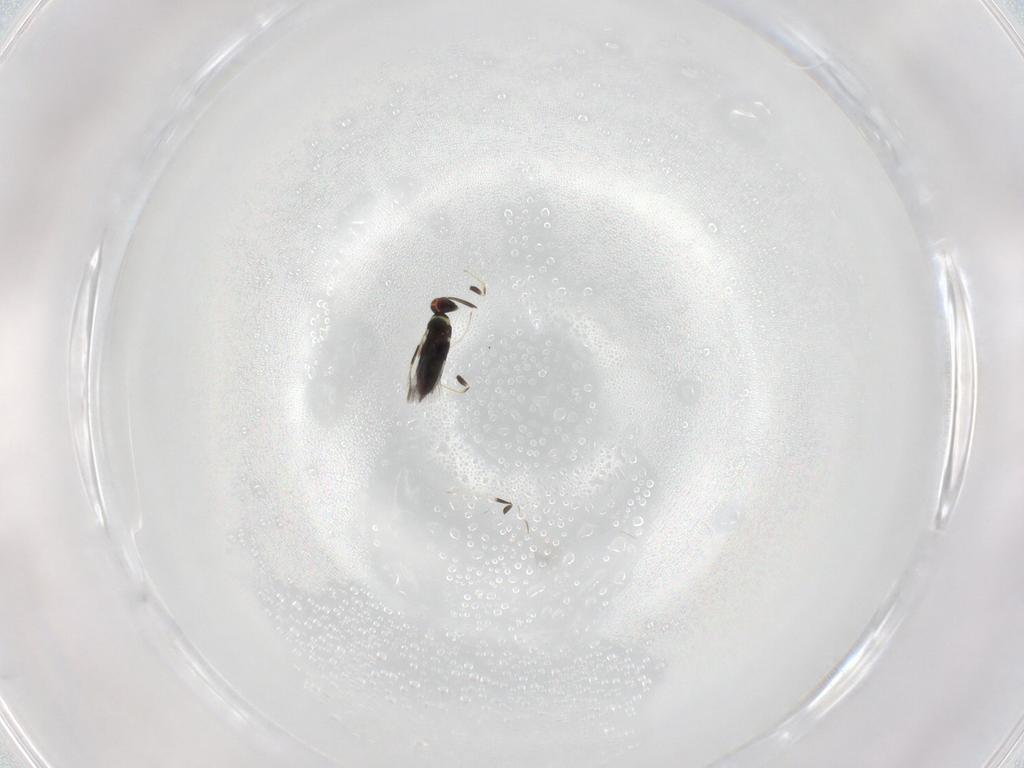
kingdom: Animalia
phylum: Arthropoda
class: Insecta
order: Hymenoptera
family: Signiphoridae
